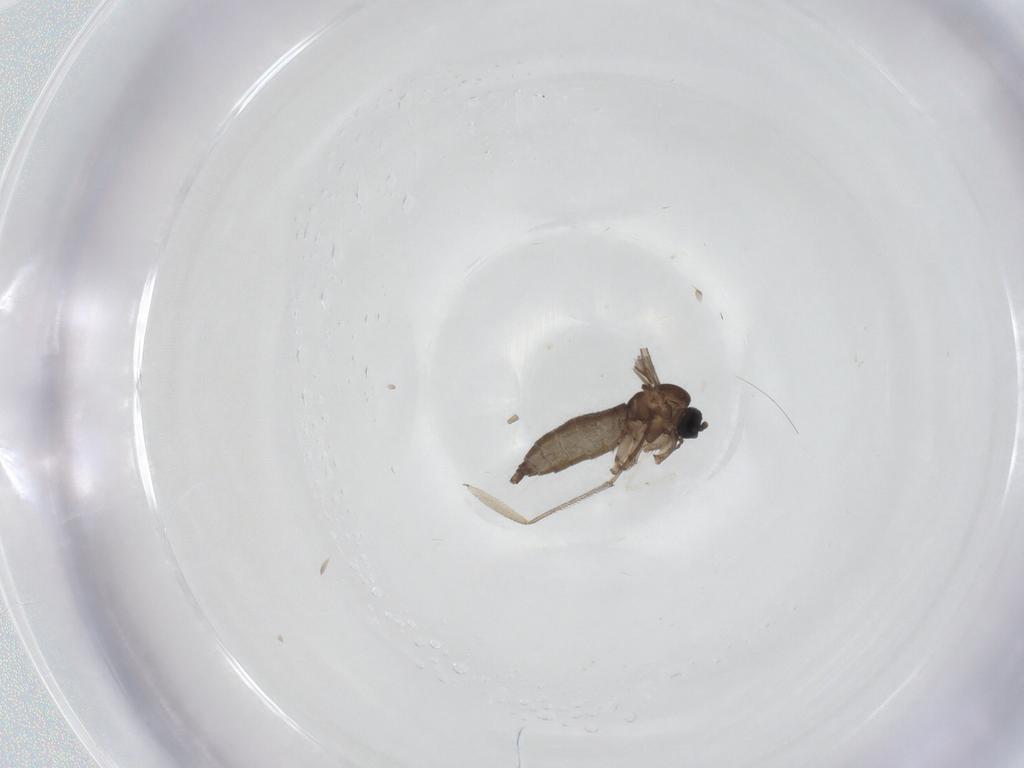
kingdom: Animalia
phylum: Arthropoda
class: Insecta
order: Diptera
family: Sciaridae
